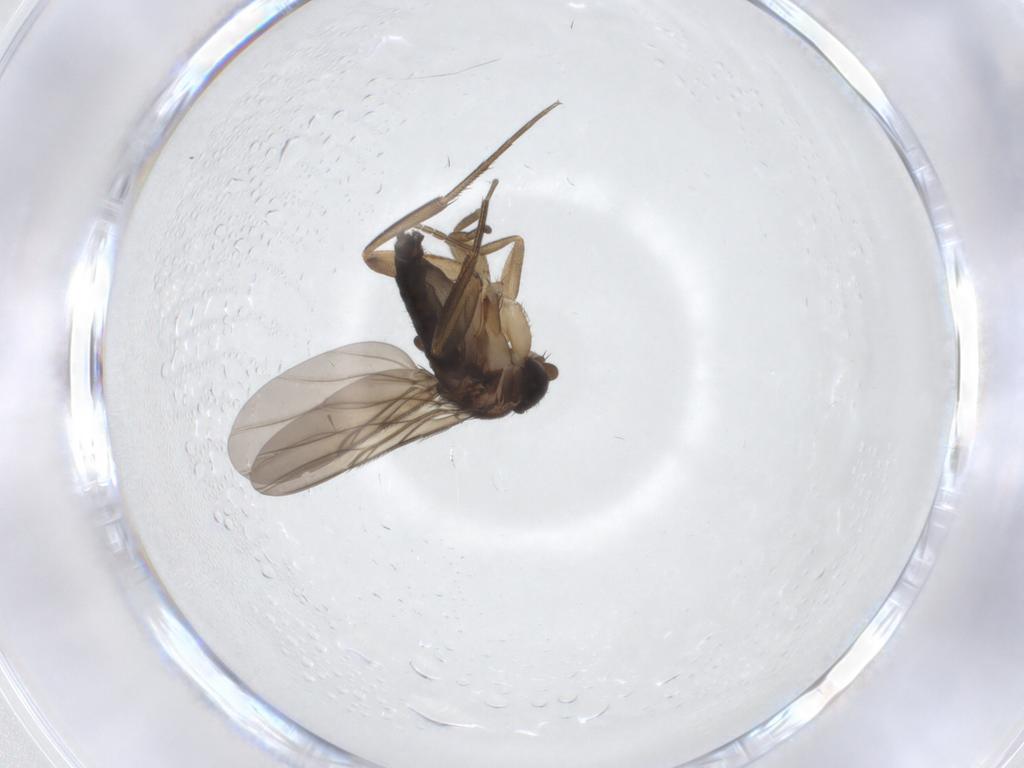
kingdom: Animalia
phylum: Arthropoda
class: Insecta
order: Diptera
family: Phoridae
